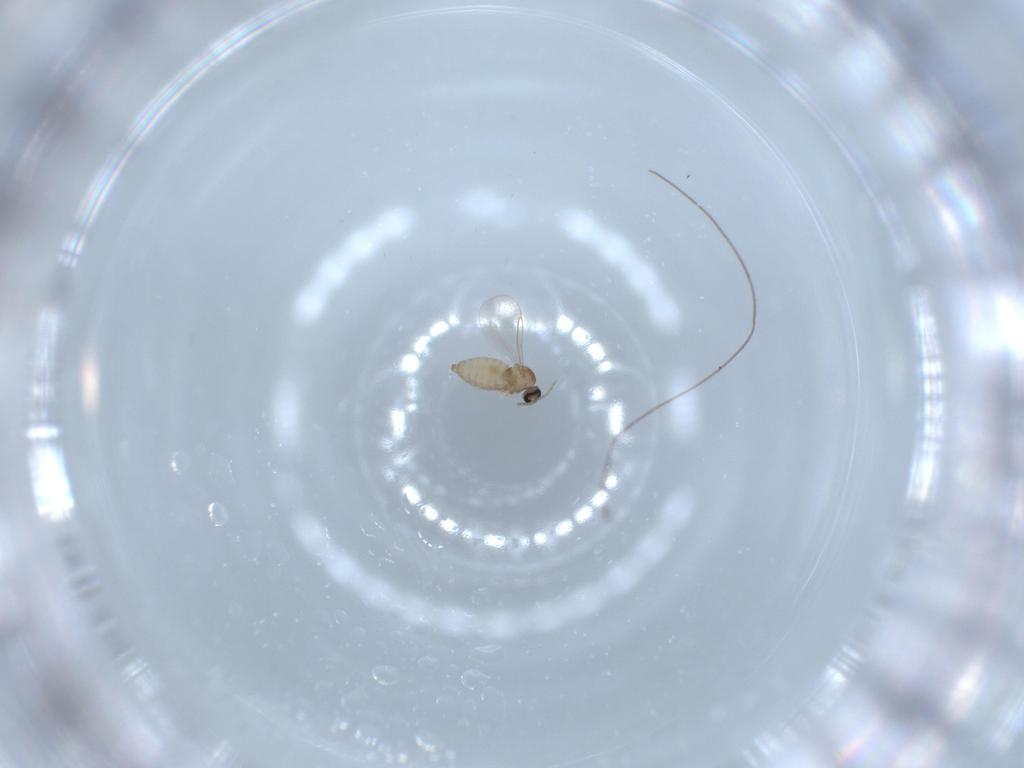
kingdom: Animalia
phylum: Arthropoda
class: Insecta
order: Diptera
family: Cecidomyiidae
